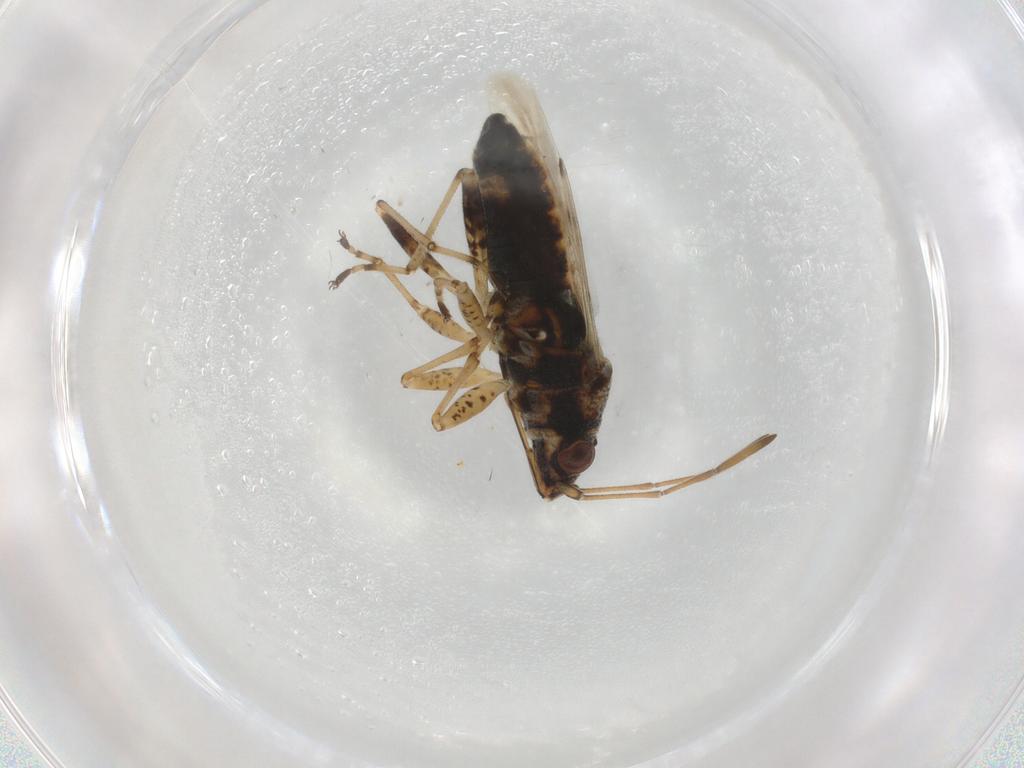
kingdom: Animalia
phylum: Arthropoda
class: Insecta
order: Hemiptera
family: Lygaeidae
